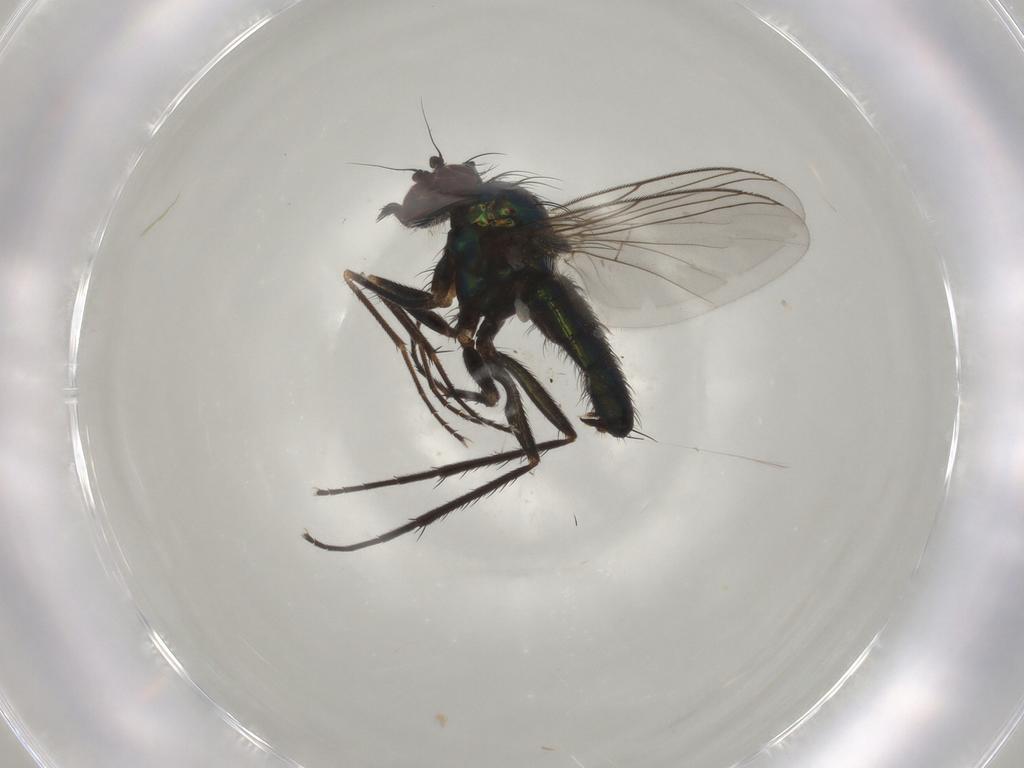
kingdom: Animalia
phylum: Arthropoda
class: Insecta
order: Diptera
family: Dolichopodidae
